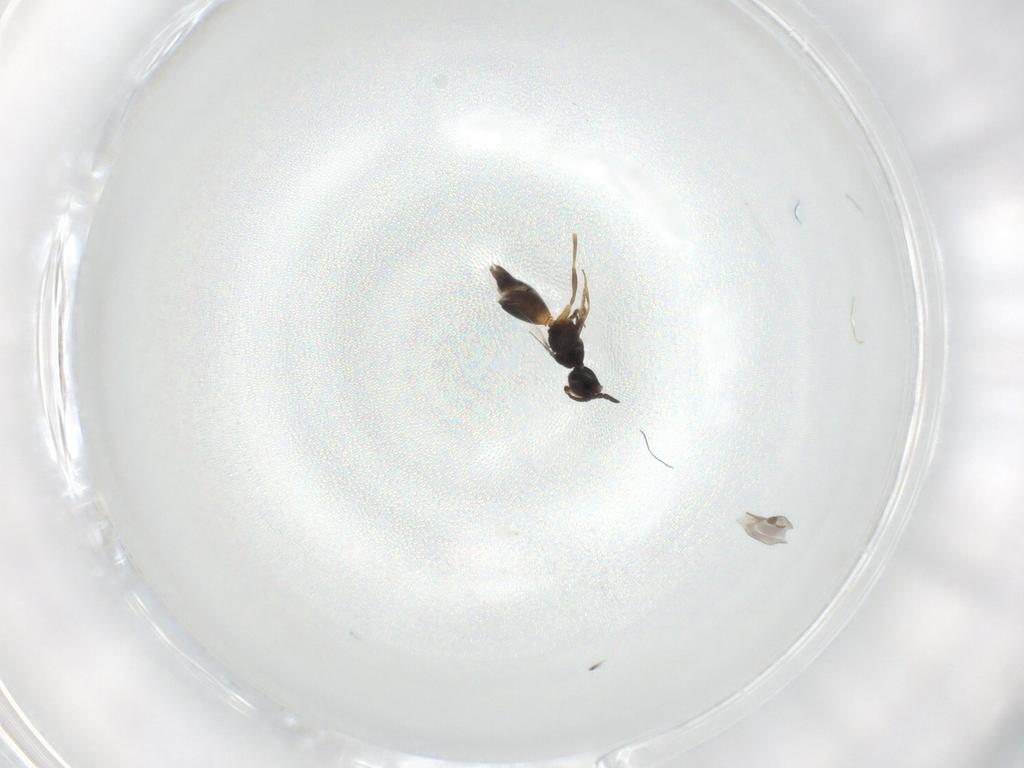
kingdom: Animalia
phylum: Arthropoda
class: Insecta
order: Hymenoptera
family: Megaspilidae
